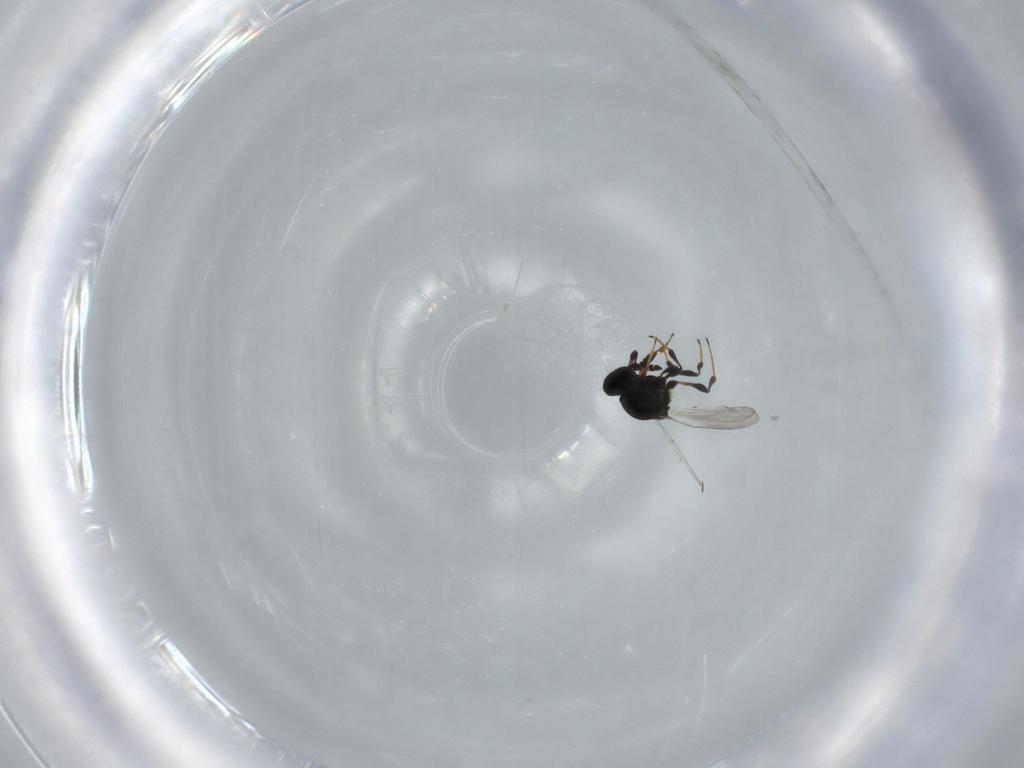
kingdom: Animalia
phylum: Arthropoda
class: Insecta
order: Hymenoptera
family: Platygastridae
